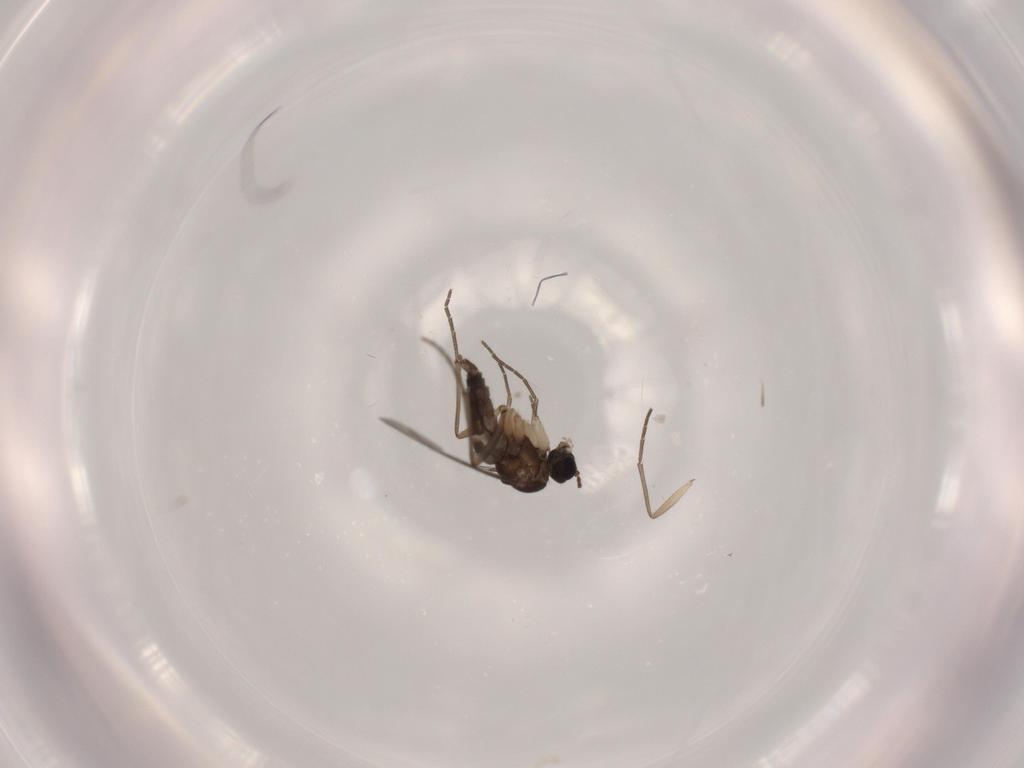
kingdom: Animalia
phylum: Arthropoda
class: Insecta
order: Diptera
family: Sciaridae
